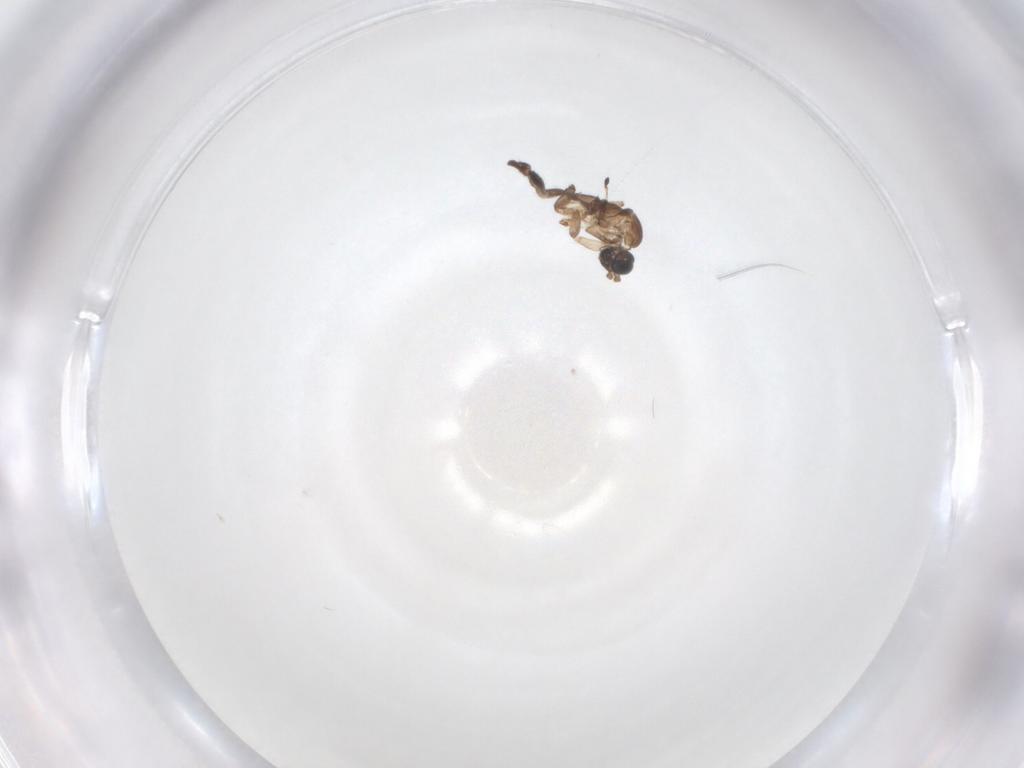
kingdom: Animalia
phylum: Arthropoda
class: Insecta
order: Diptera
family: Sciaridae
